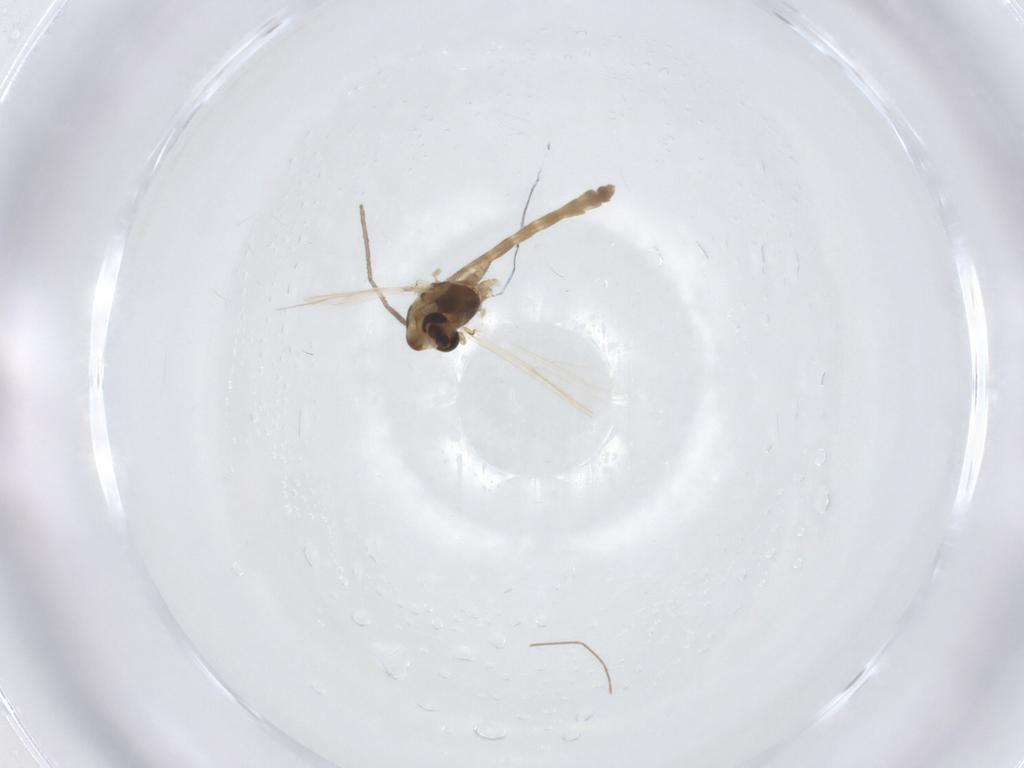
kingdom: Animalia
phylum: Arthropoda
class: Insecta
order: Diptera
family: Chironomidae
